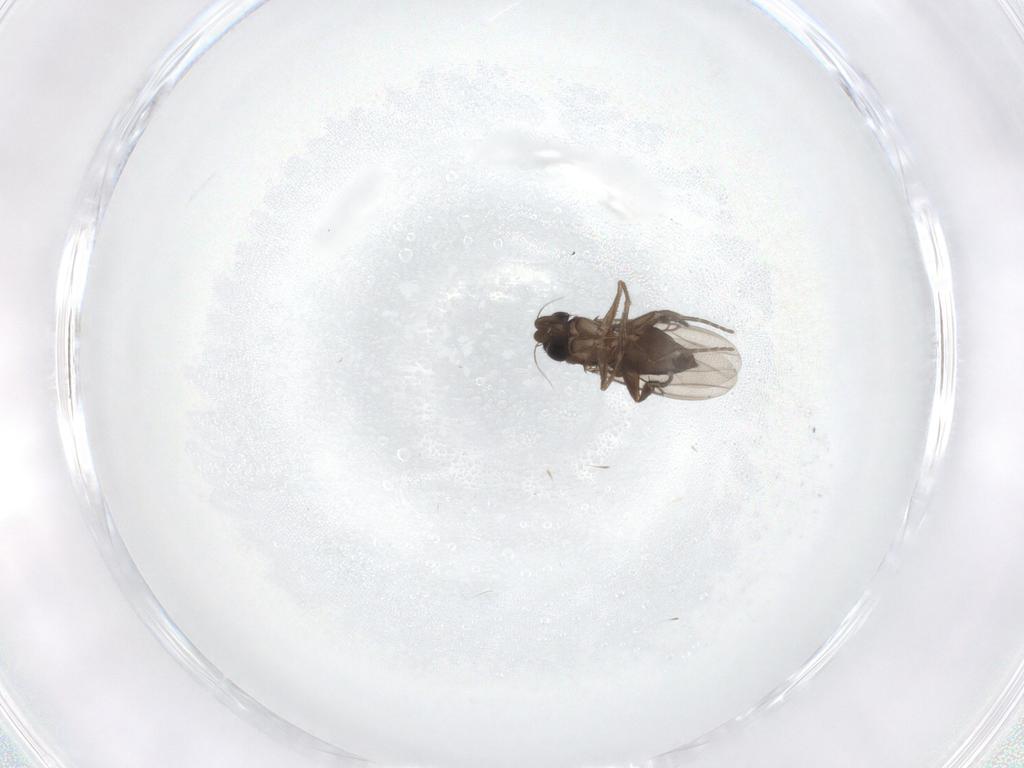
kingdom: Animalia
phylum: Arthropoda
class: Insecta
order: Diptera
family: Phoridae
